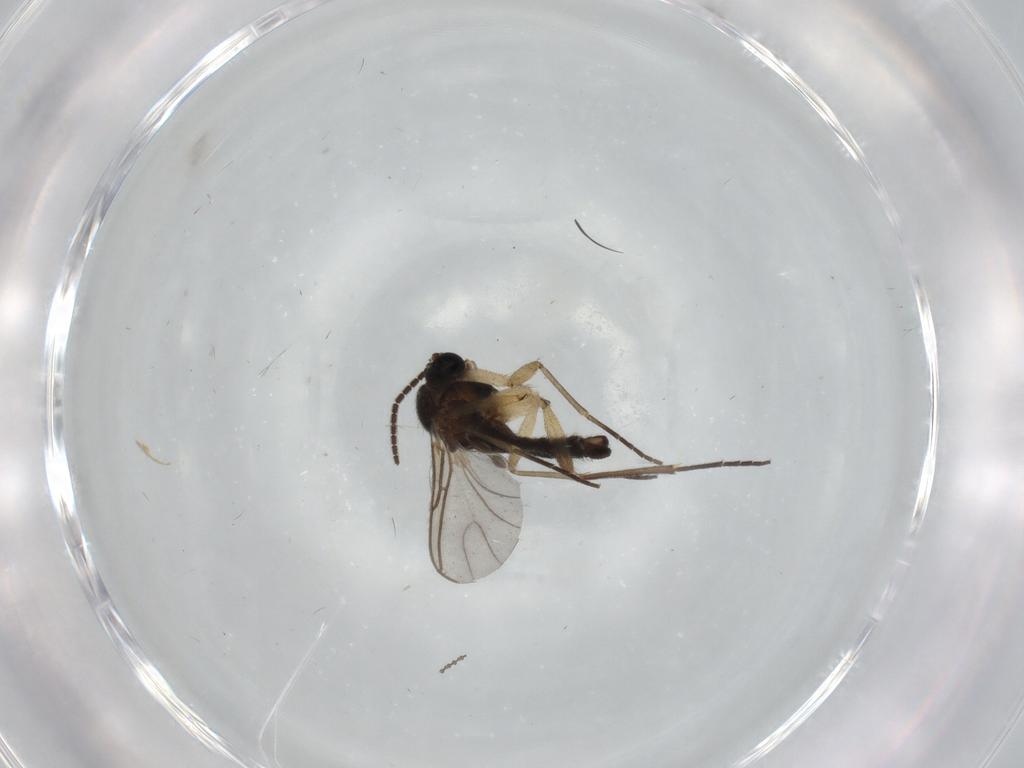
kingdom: Animalia
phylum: Arthropoda
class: Insecta
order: Diptera
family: Sciaridae
